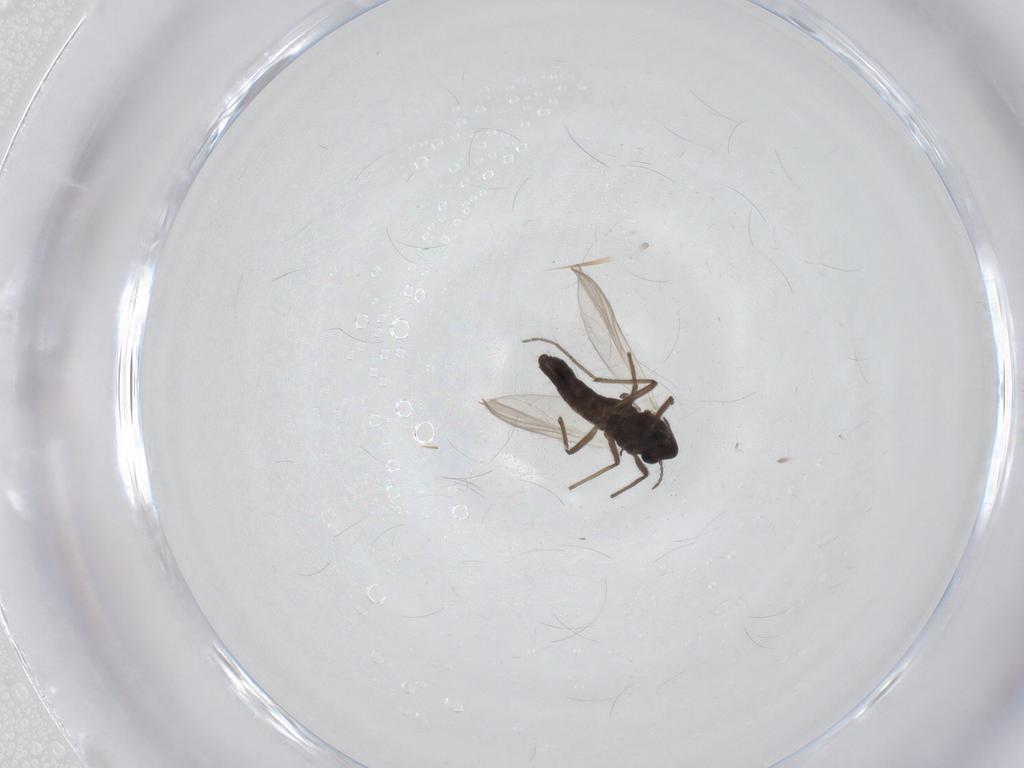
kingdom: Animalia
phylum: Arthropoda
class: Insecta
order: Diptera
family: Chironomidae
